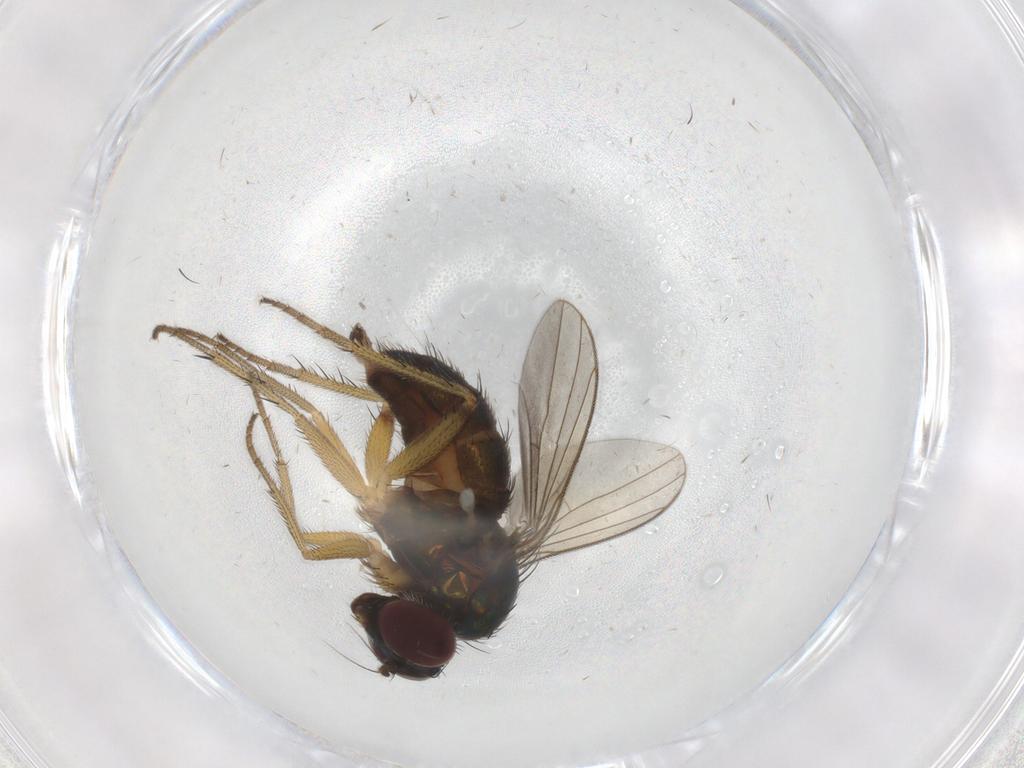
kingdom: Animalia
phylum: Arthropoda
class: Insecta
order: Diptera
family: Dolichopodidae
